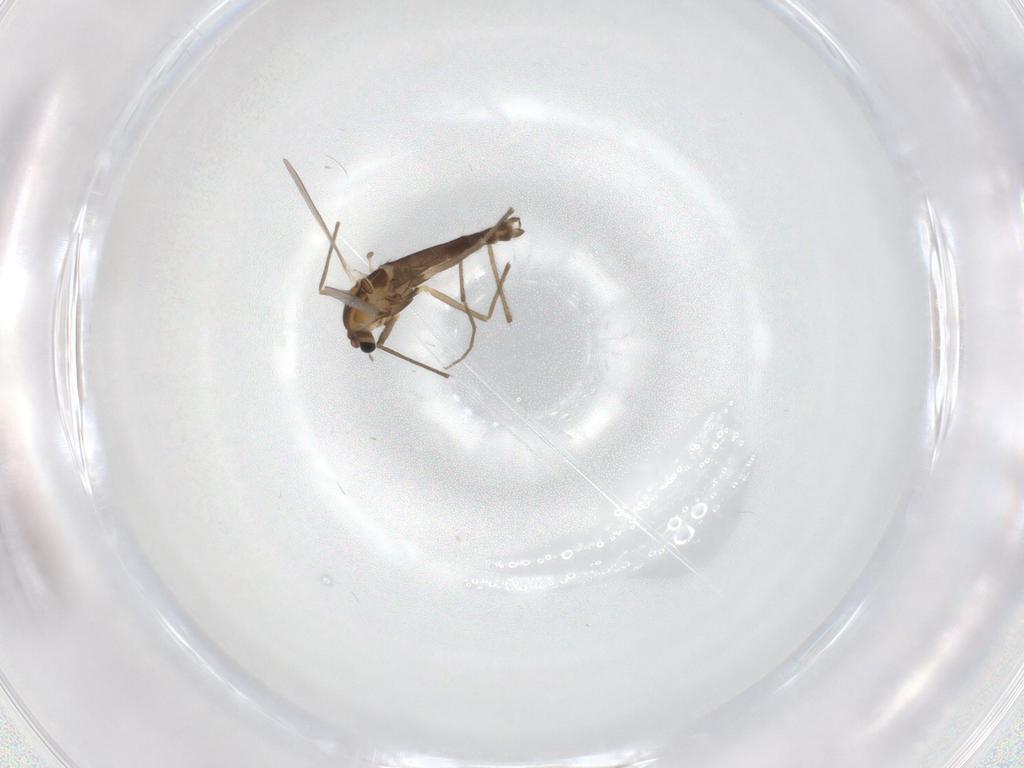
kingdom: Animalia
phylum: Arthropoda
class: Insecta
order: Diptera
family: Chironomidae
